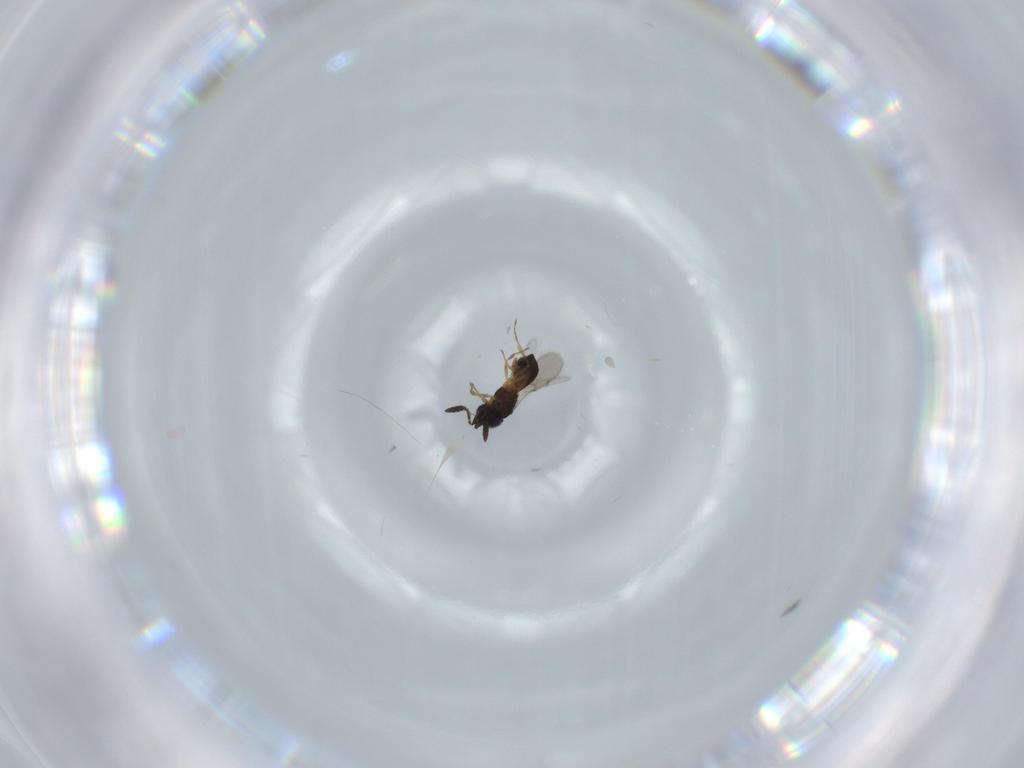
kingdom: Animalia
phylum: Arthropoda
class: Insecta
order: Hymenoptera
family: Scelionidae
